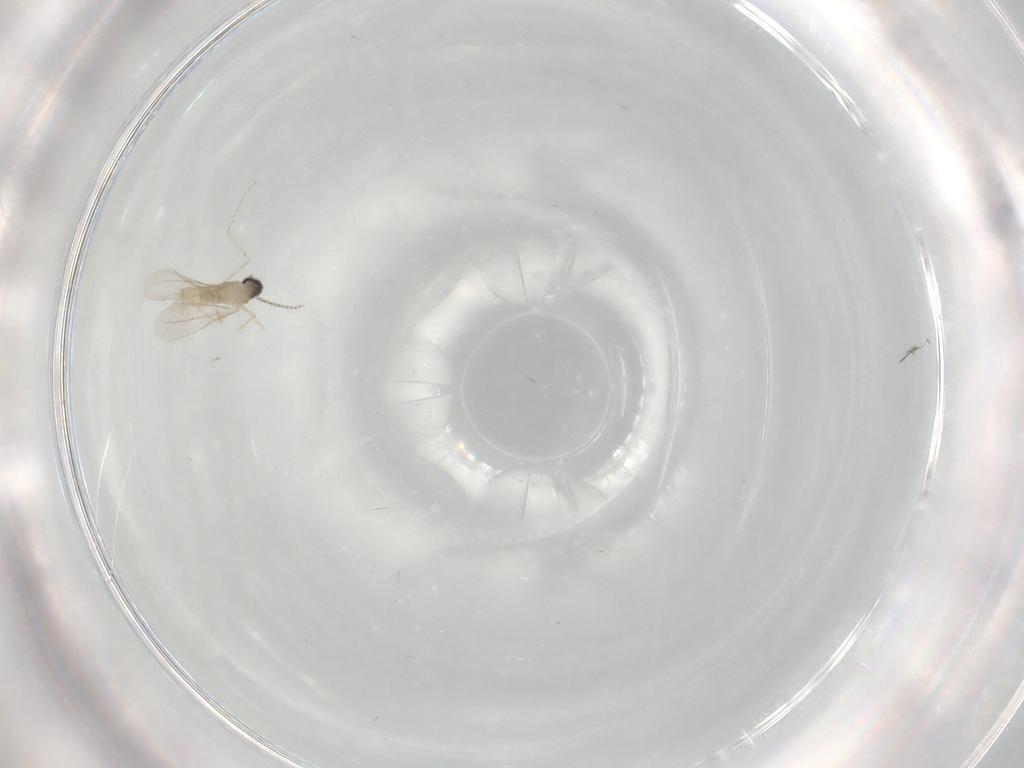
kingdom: Animalia
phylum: Arthropoda
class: Insecta
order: Diptera
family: Cecidomyiidae
